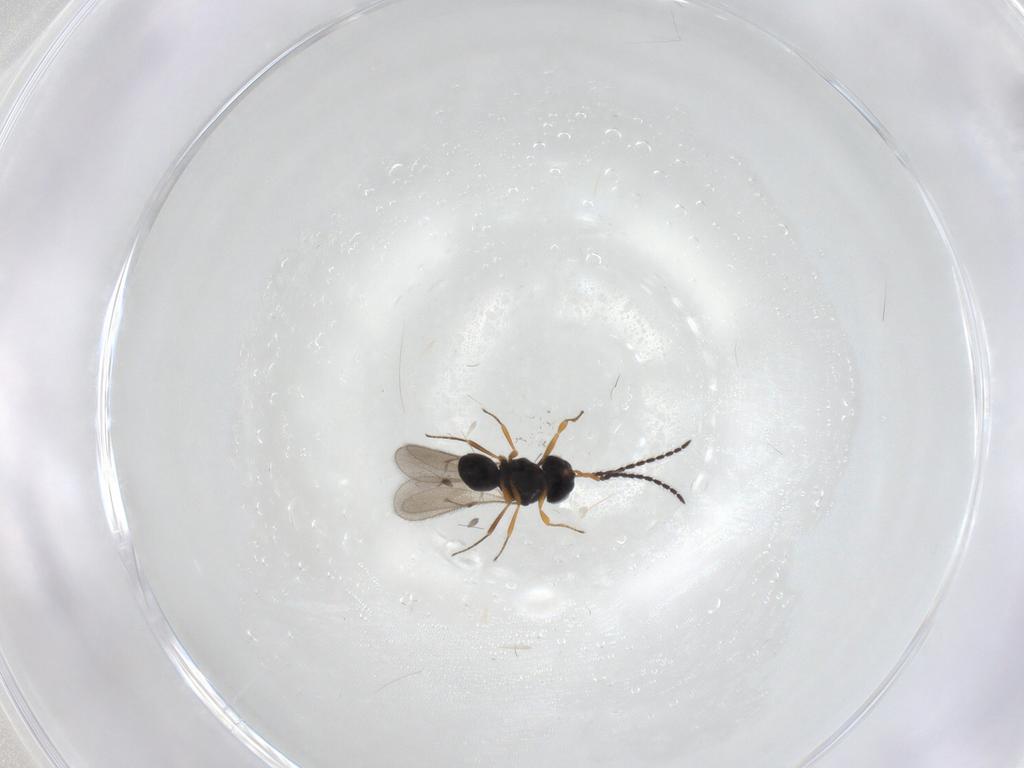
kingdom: Animalia
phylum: Arthropoda
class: Insecta
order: Hymenoptera
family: Scelionidae
